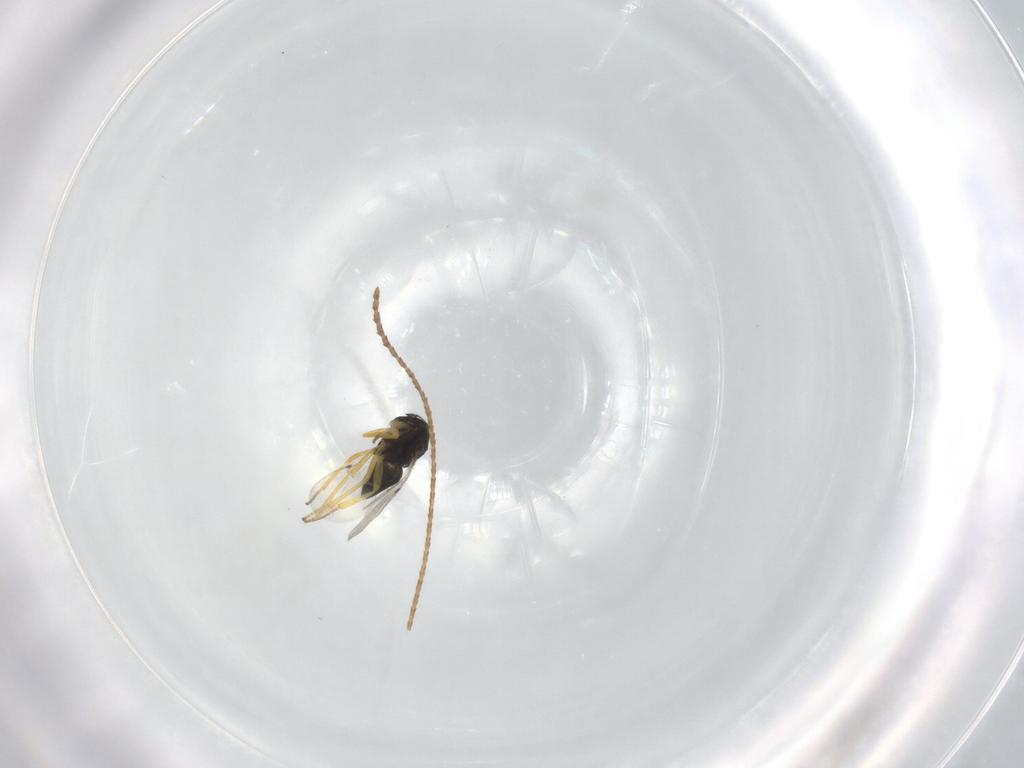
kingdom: Animalia
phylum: Arthropoda
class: Insecta
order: Hymenoptera
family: Encyrtidae
